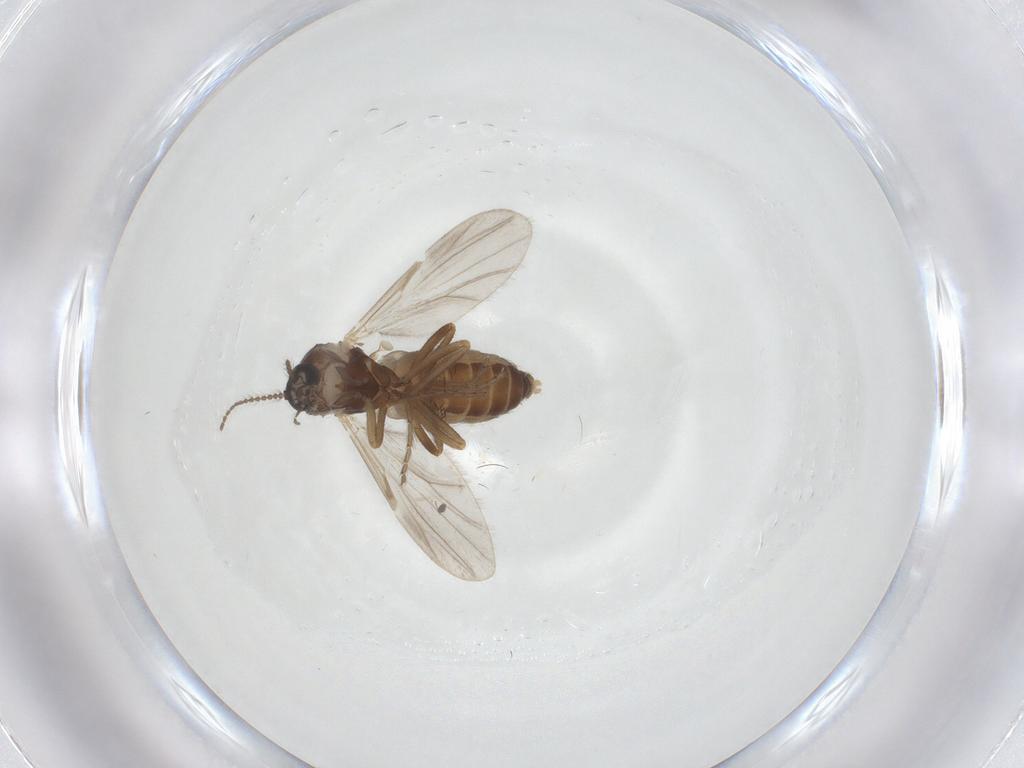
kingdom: Animalia
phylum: Arthropoda
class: Insecta
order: Diptera
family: Ceratopogonidae
